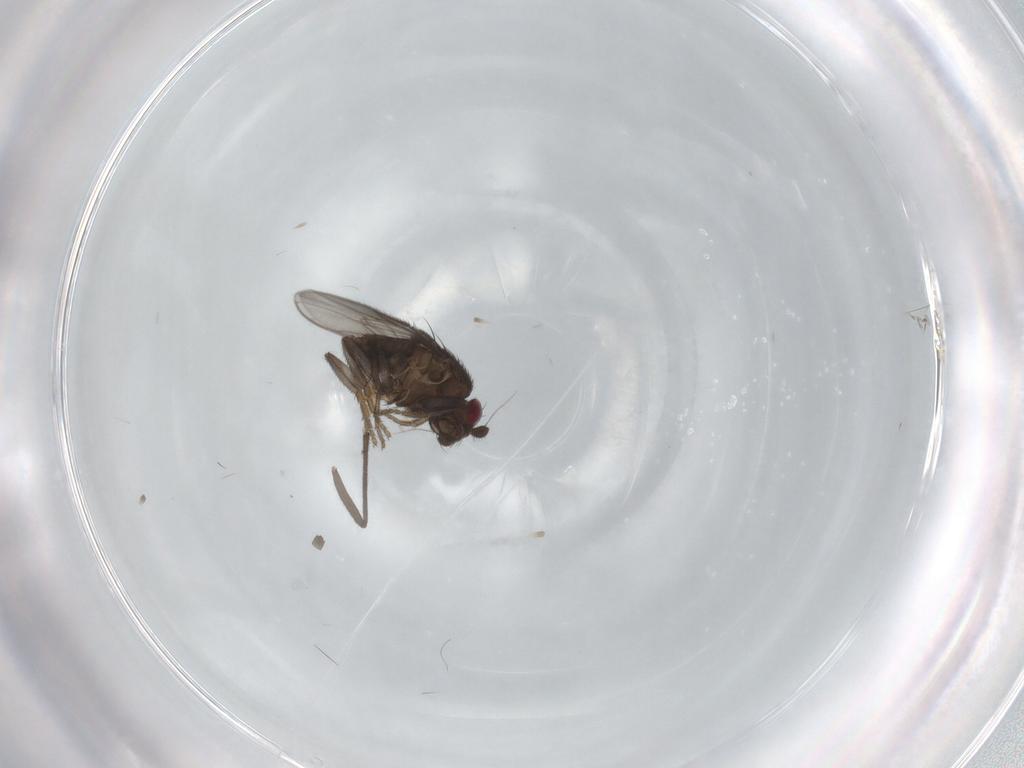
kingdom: Animalia
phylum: Arthropoda
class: Insecta
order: Diptera
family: Sphaeroceridae
